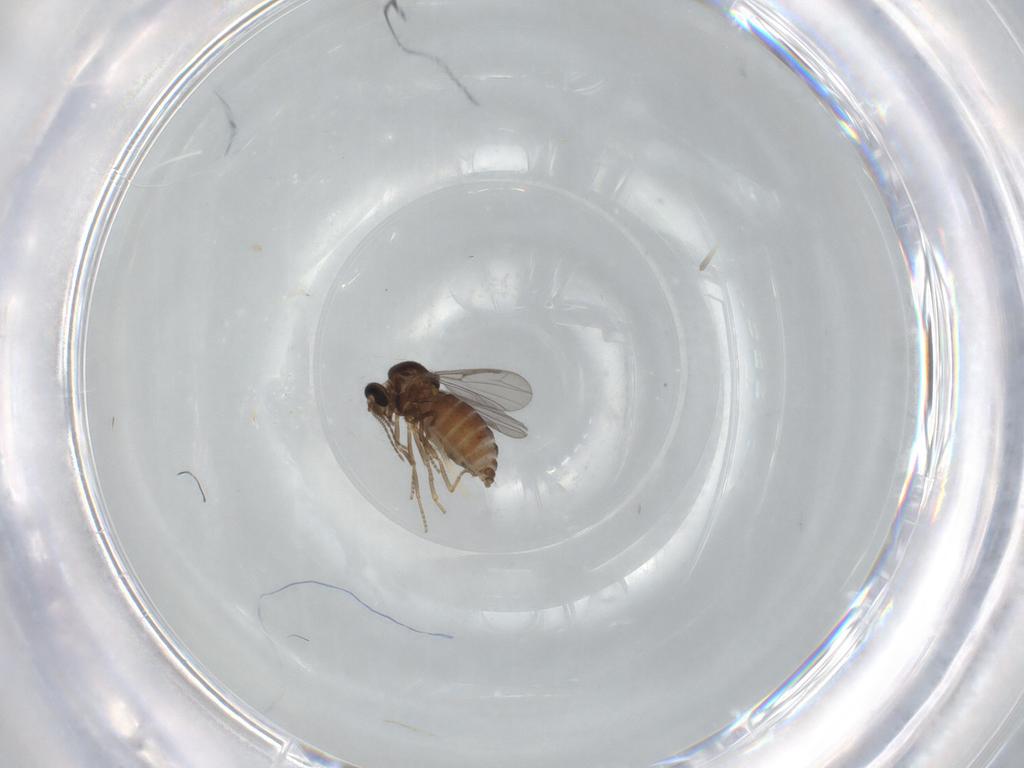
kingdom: Animalia
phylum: Arthropoda
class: Insecta
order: Diptera
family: Ceratopogonidae
